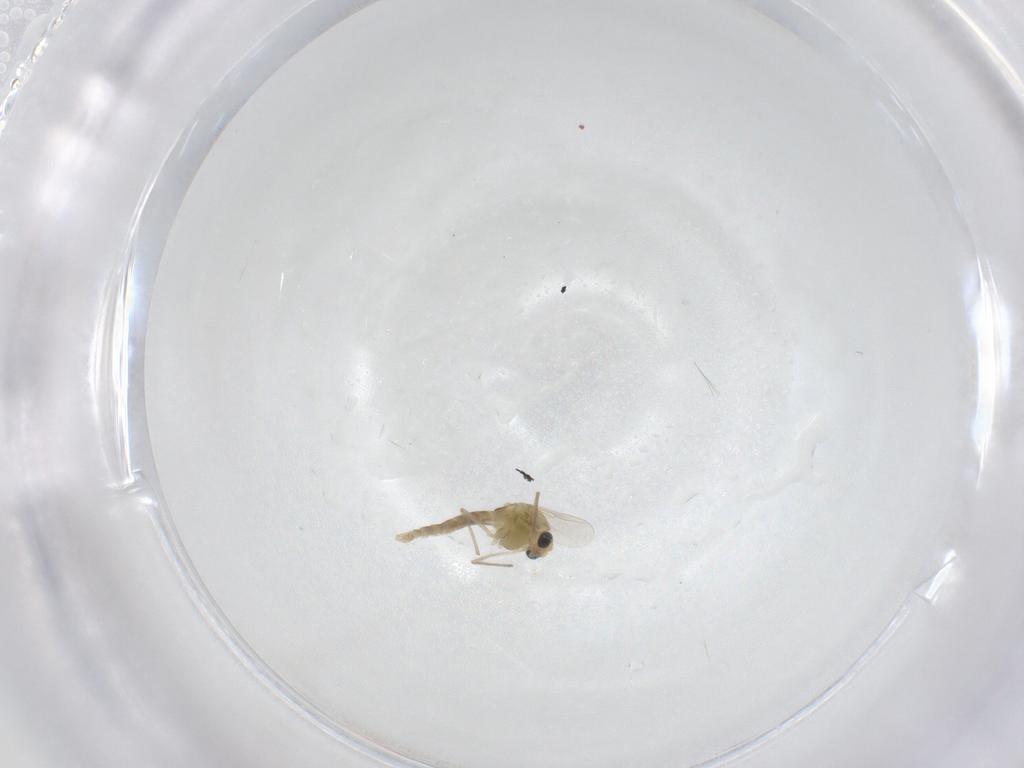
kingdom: Animalia
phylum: Arthropoda
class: Insecta
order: Diptera
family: Chironomidae
